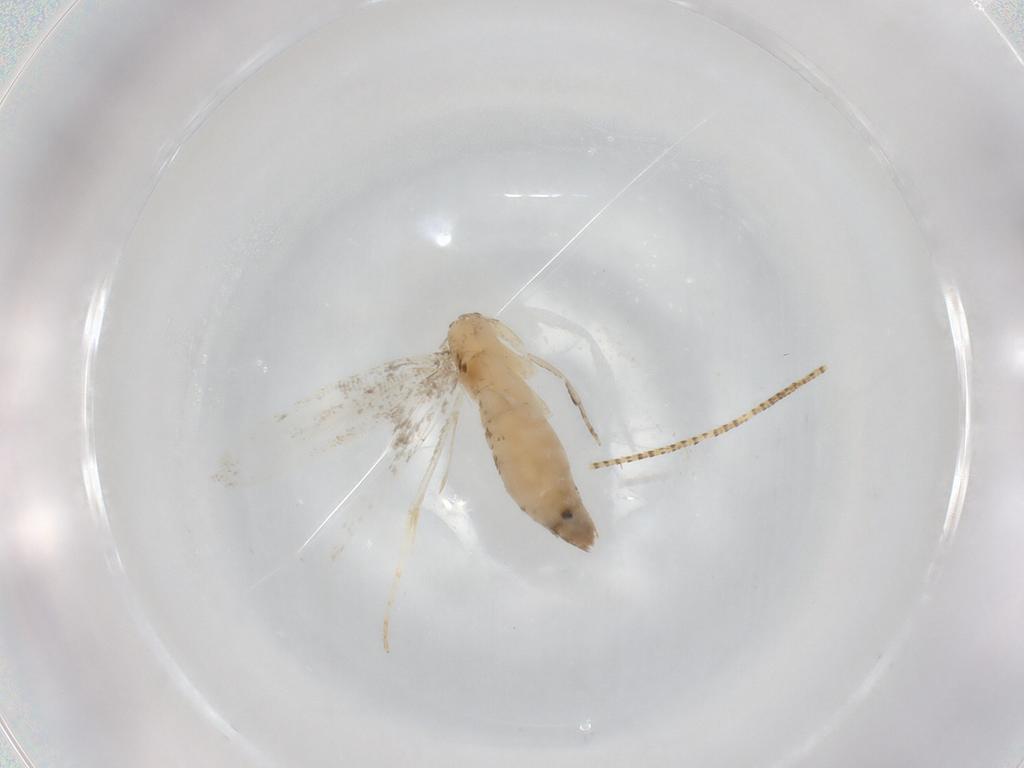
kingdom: Animalia
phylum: Arthropoda
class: Insecta
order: Lepidoptera
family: Tineidae
